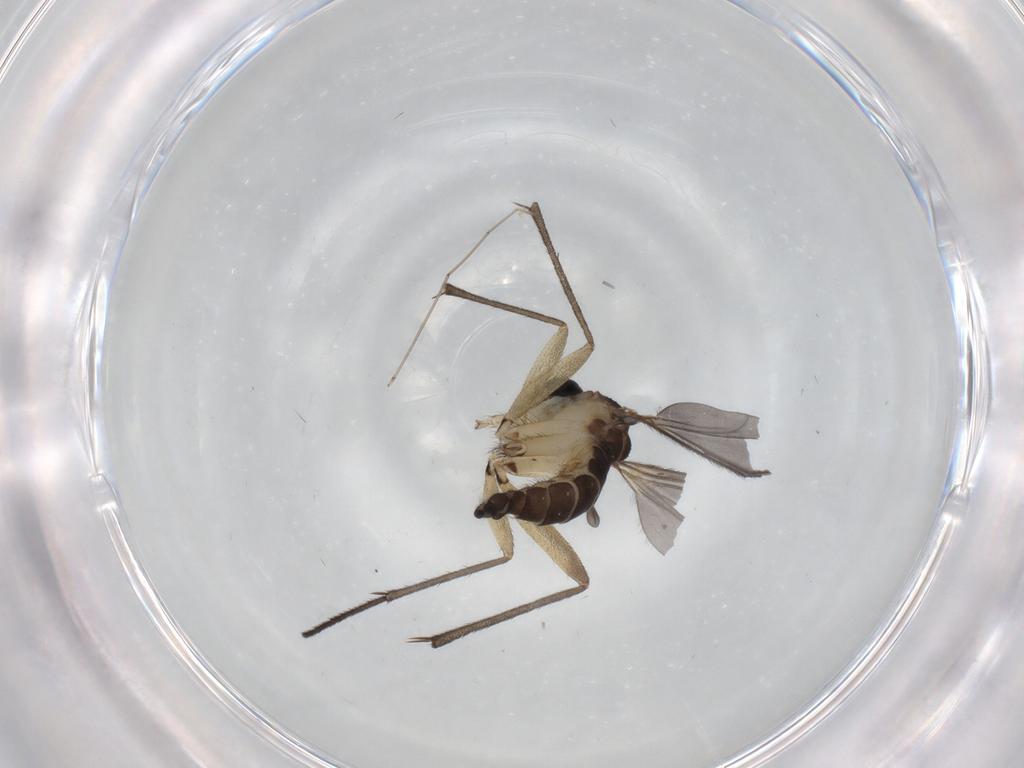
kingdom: Animalia
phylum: Arthropoda
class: Insecta
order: Diptera
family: Sciaridae
